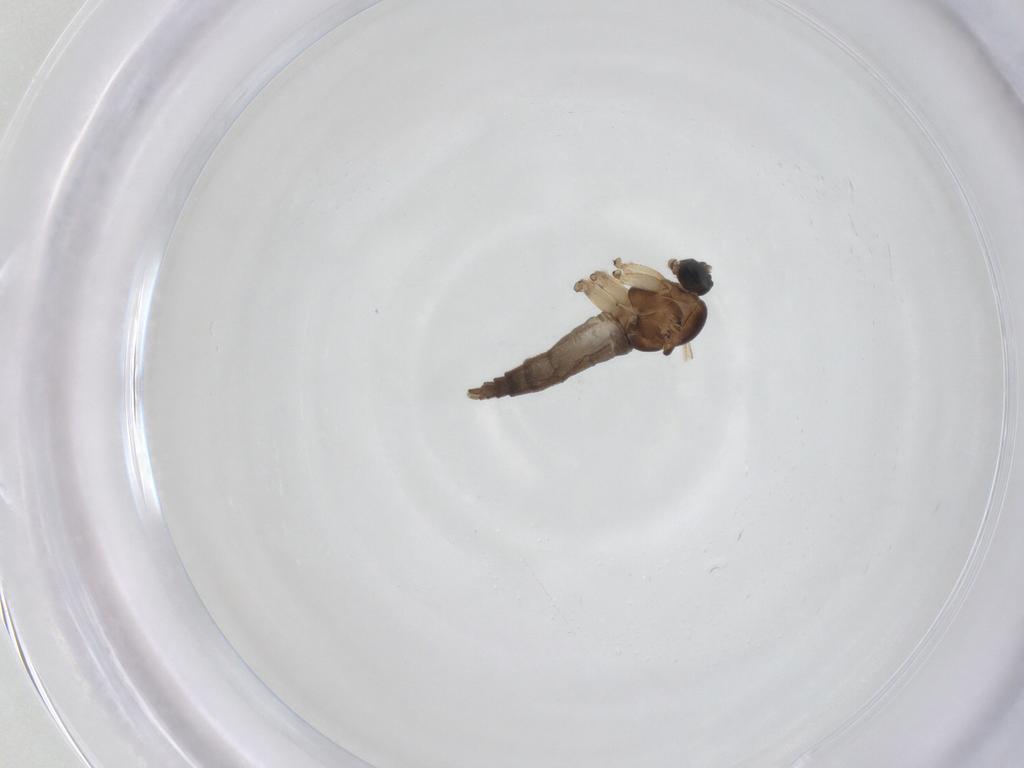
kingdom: Animalia
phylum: Arthropoda
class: Insecta
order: Diptera
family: Sciaridae
